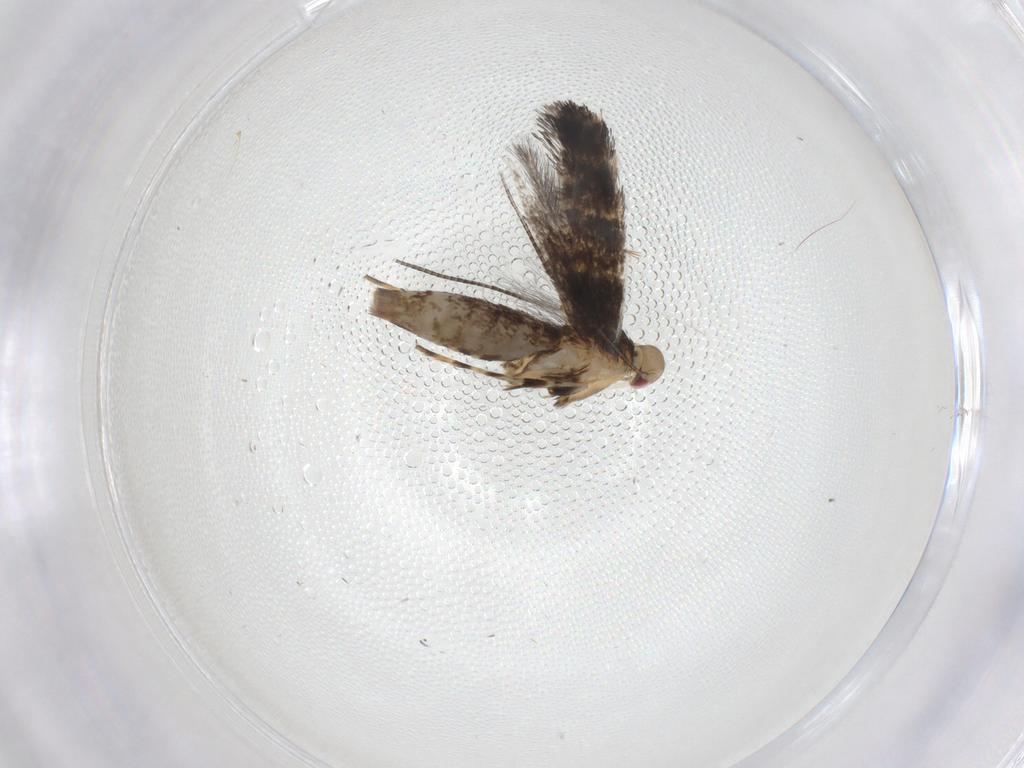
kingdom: Animalia
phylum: Arthropoda
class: Insecta
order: Lepidoptera
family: Gracillariidae
